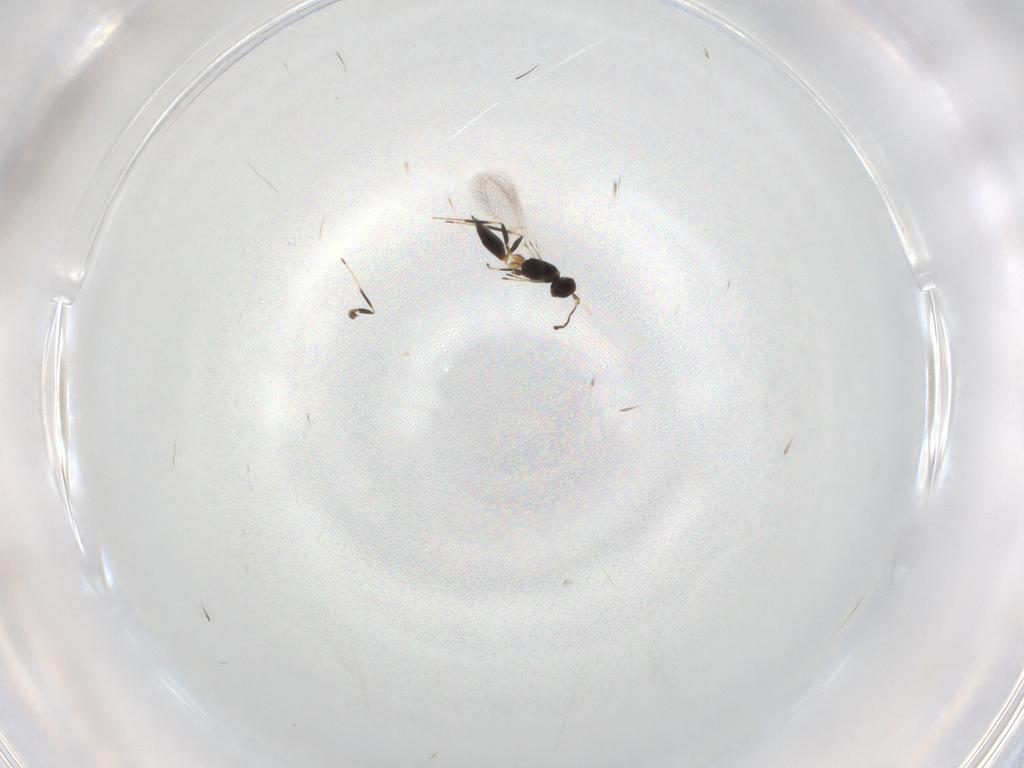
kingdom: Animalia
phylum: Arthropoda
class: Insecta
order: Hymenoptera
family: Mymaridae
